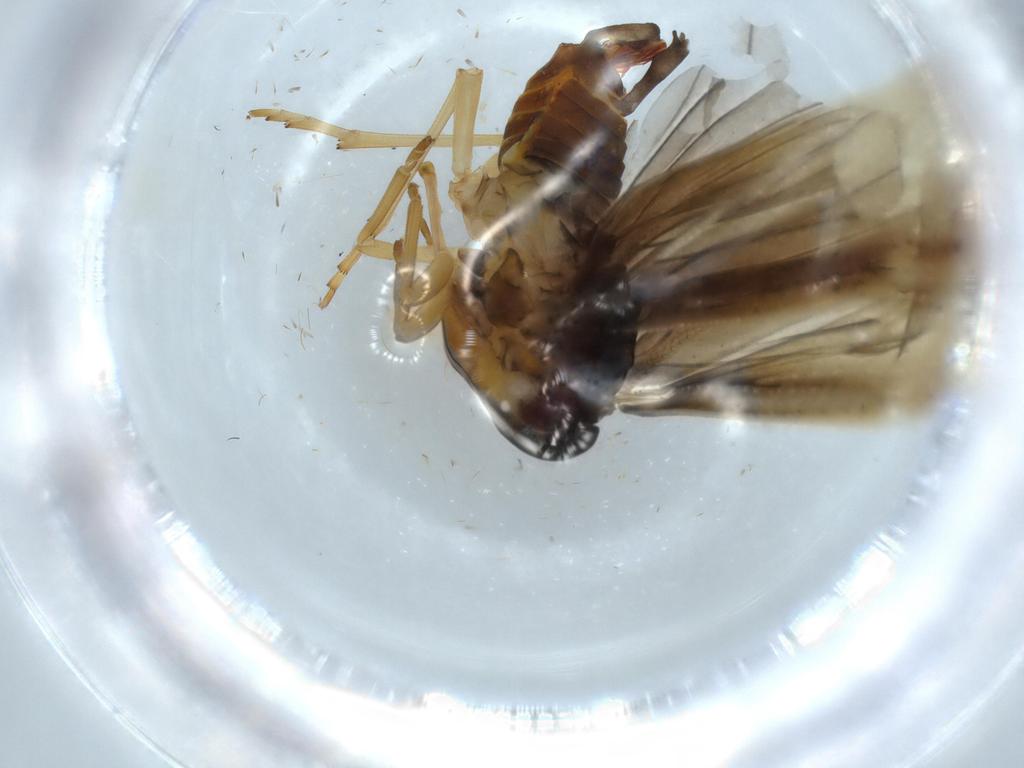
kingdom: Animalia
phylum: Arthropoda
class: Insecta
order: Hemiptera
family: Derbidae
